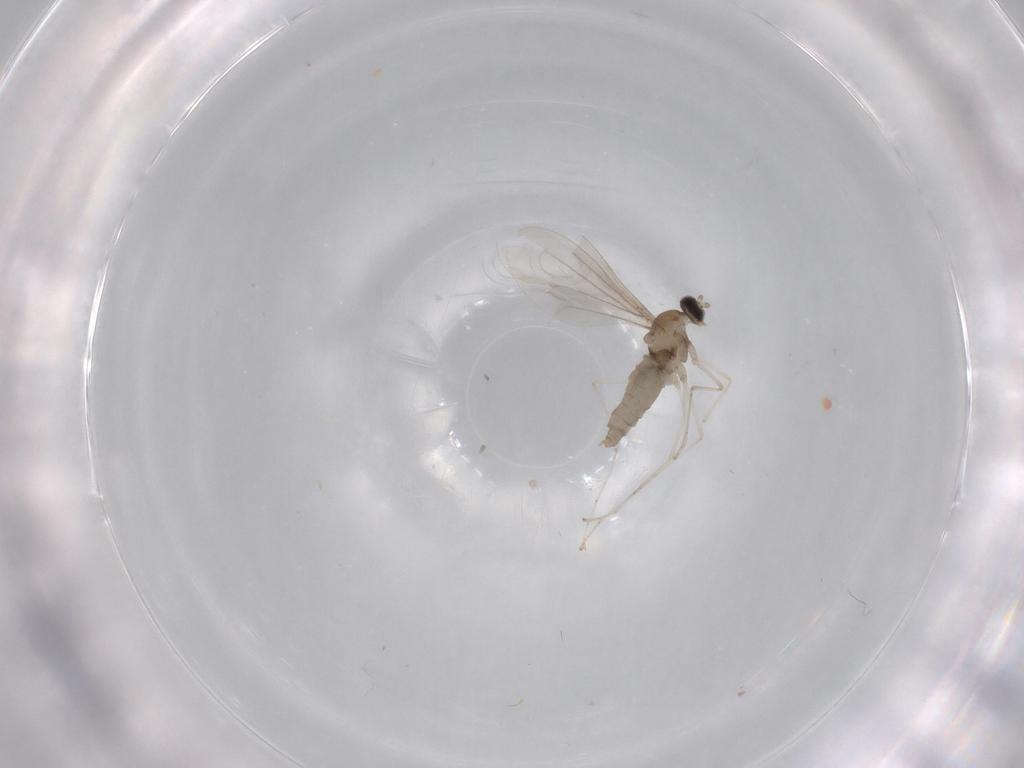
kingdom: Animalia
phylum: Arthropoda
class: Insecta
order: Diptera
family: Cecidomyiidae
